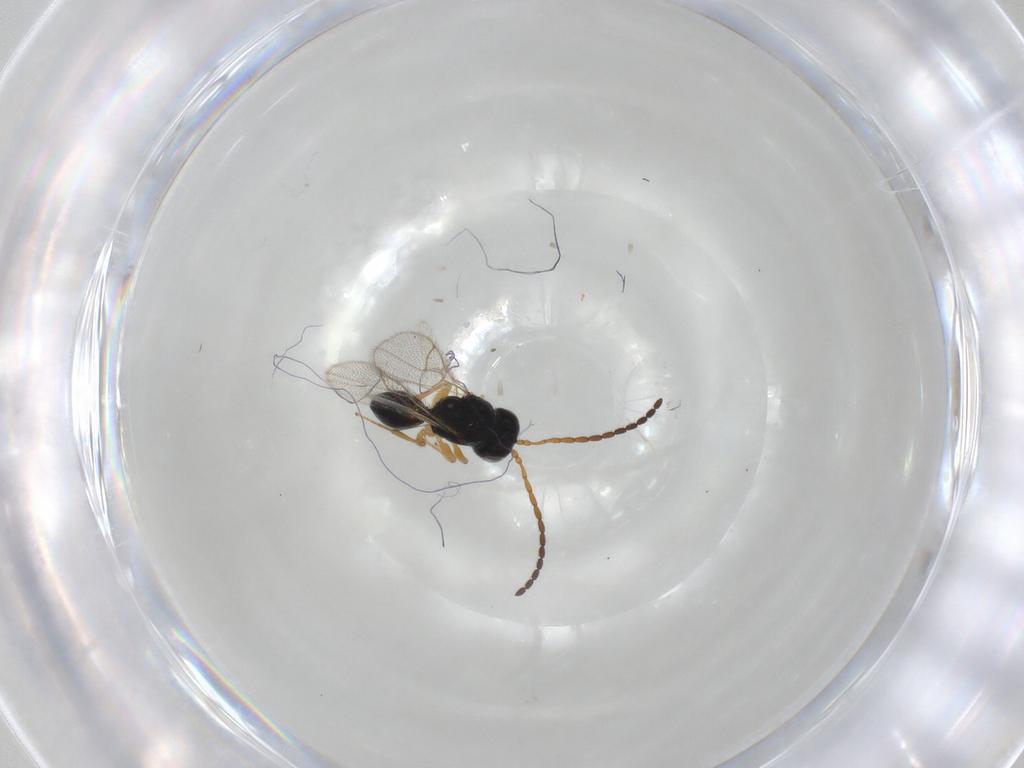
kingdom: Animalia
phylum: Arthropoda
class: Insecta
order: Hymenoptera
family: Figitidae
